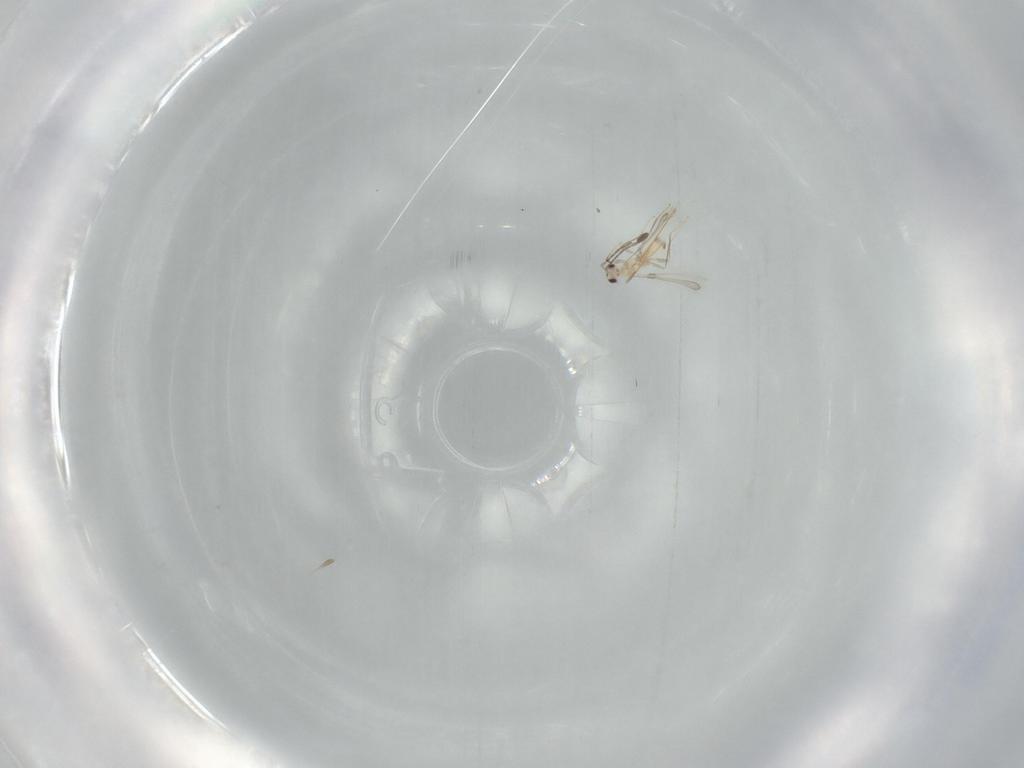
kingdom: Animalia
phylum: Arthropoda
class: Insecta
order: Hymenoptera
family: Mymaridae
